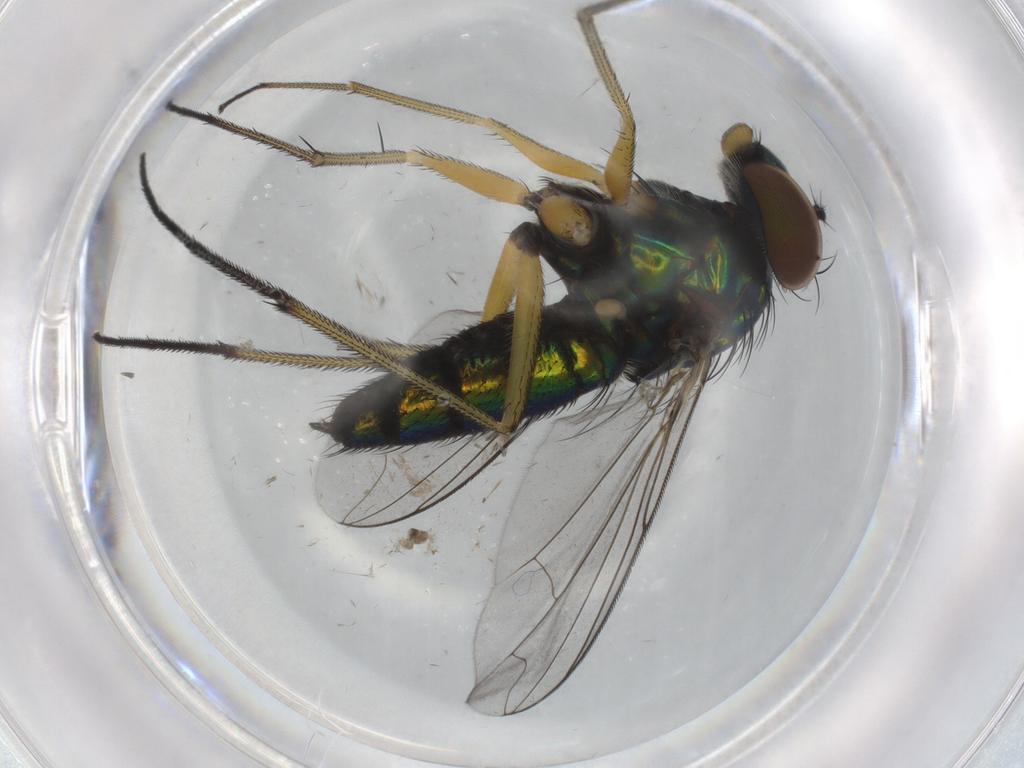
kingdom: Animalia
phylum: Arthropoda
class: Insecta
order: Diptera
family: Dolichopodidae
